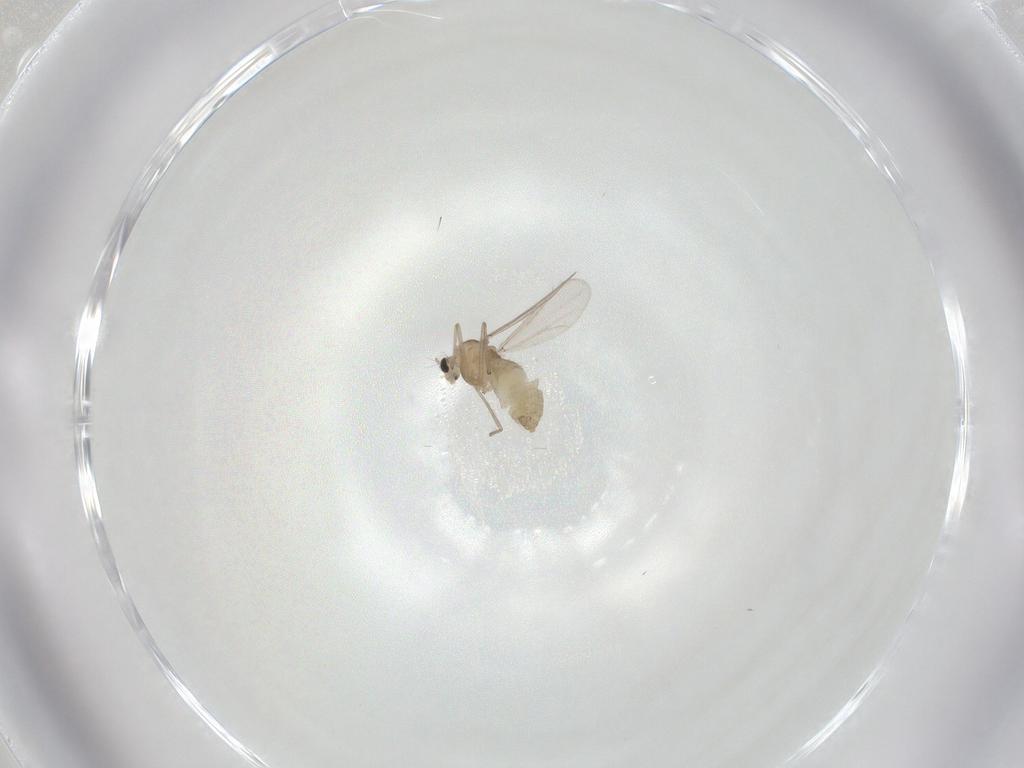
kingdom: Animalia
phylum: Arthropoda
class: Insecta
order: Diptera
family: Chironomidae
